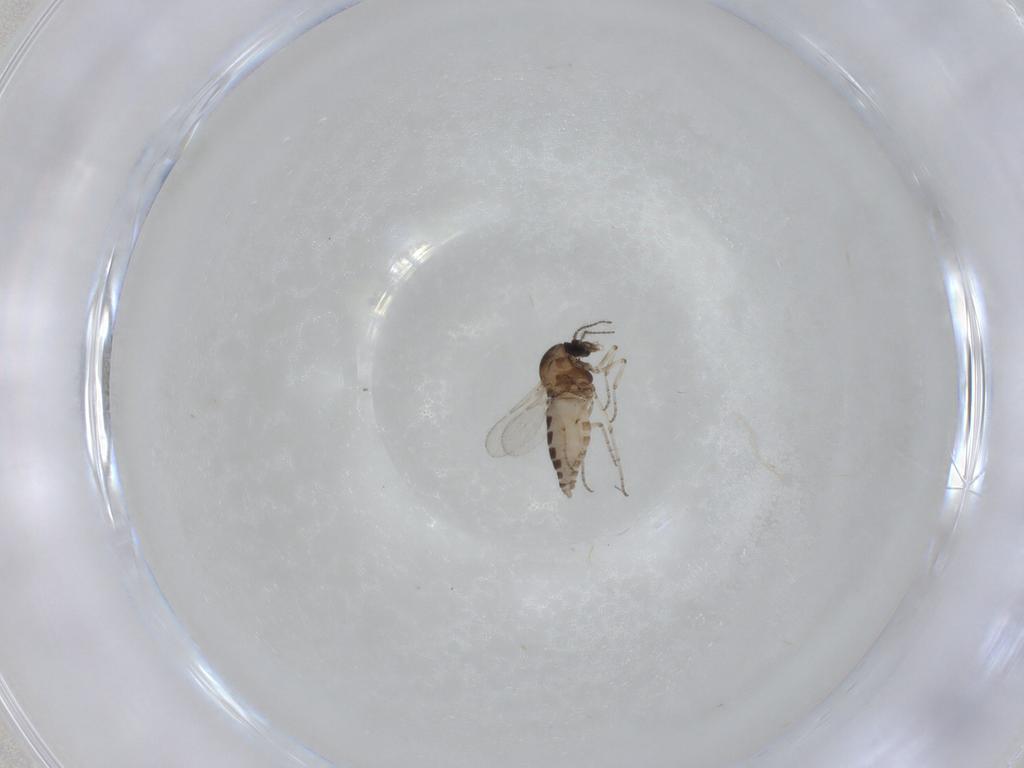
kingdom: Animalia
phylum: Arthropoda
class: Insecta
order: Diptera
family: Ceratopogonidae
